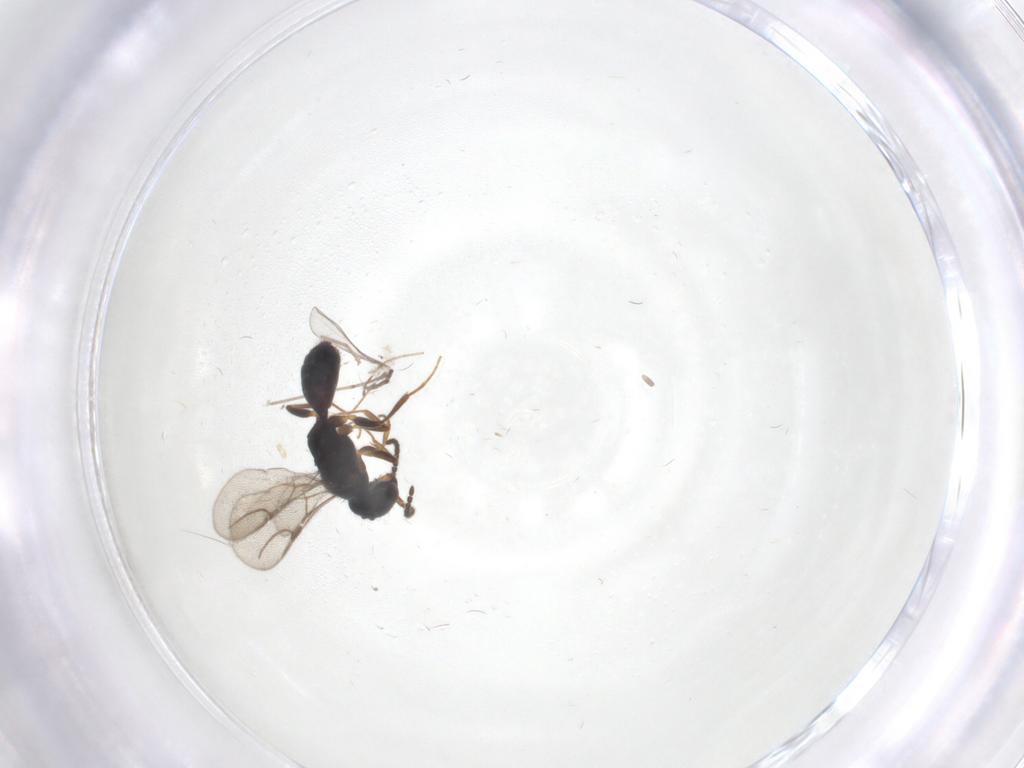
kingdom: Animalia
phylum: Arthropoda
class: Insecta
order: Hymenoptera
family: Bethylidae
